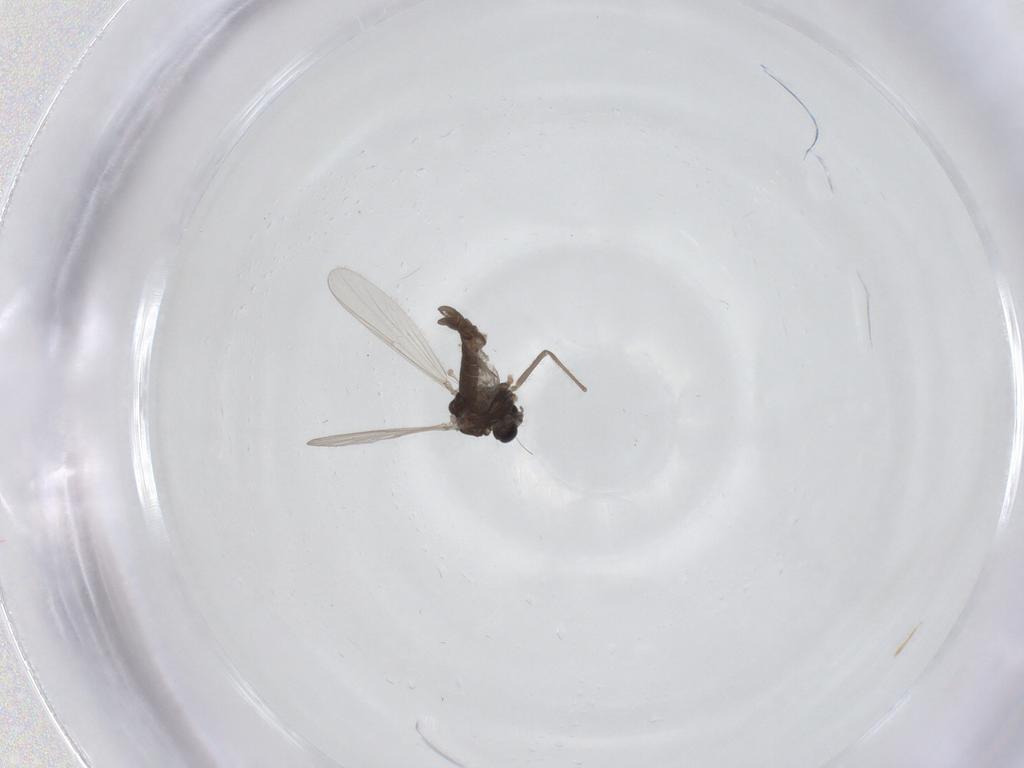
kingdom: Animalia
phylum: Arthropoda
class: Insecta
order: Diptera
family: Chironomidae
